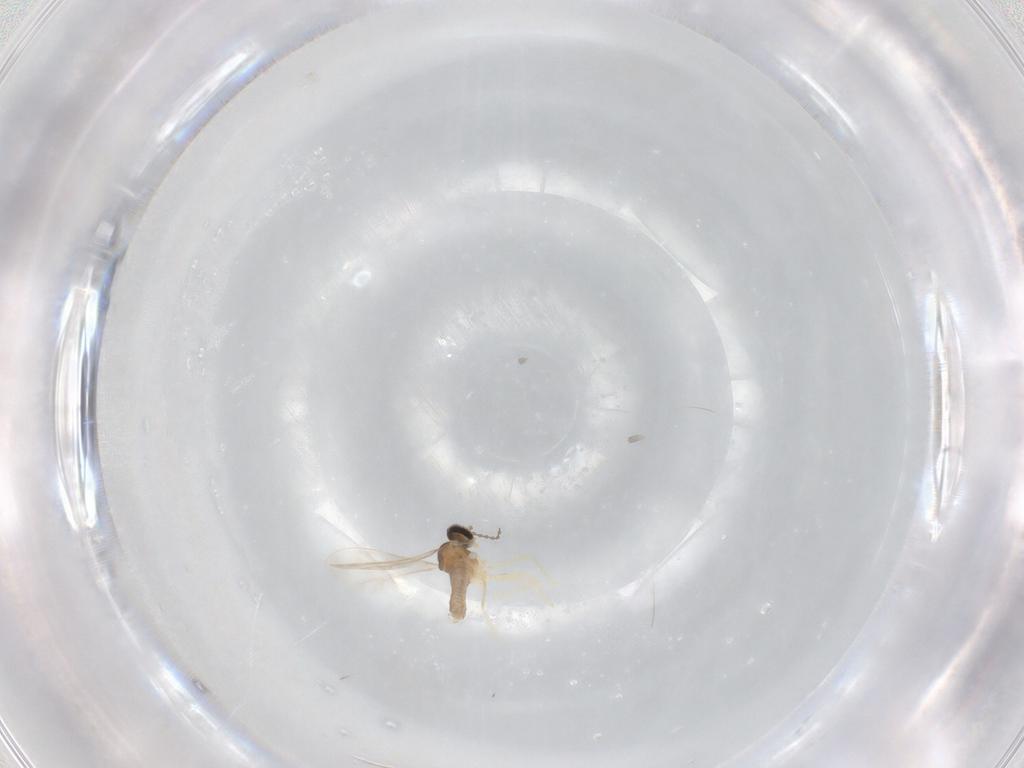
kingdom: Animalia
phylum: Arthropoda
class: Insecta
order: Diptera
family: Cecidomyiidae
